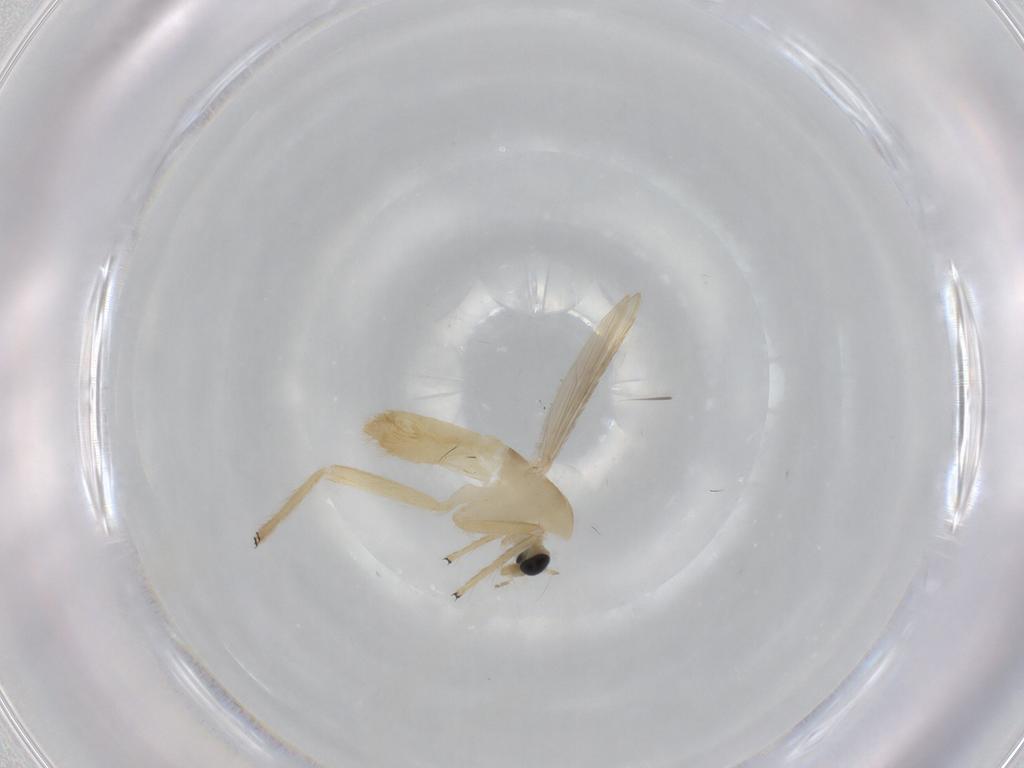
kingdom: Animalia
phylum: Arthropoda
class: Insecta
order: Diptera
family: Chironomidae
